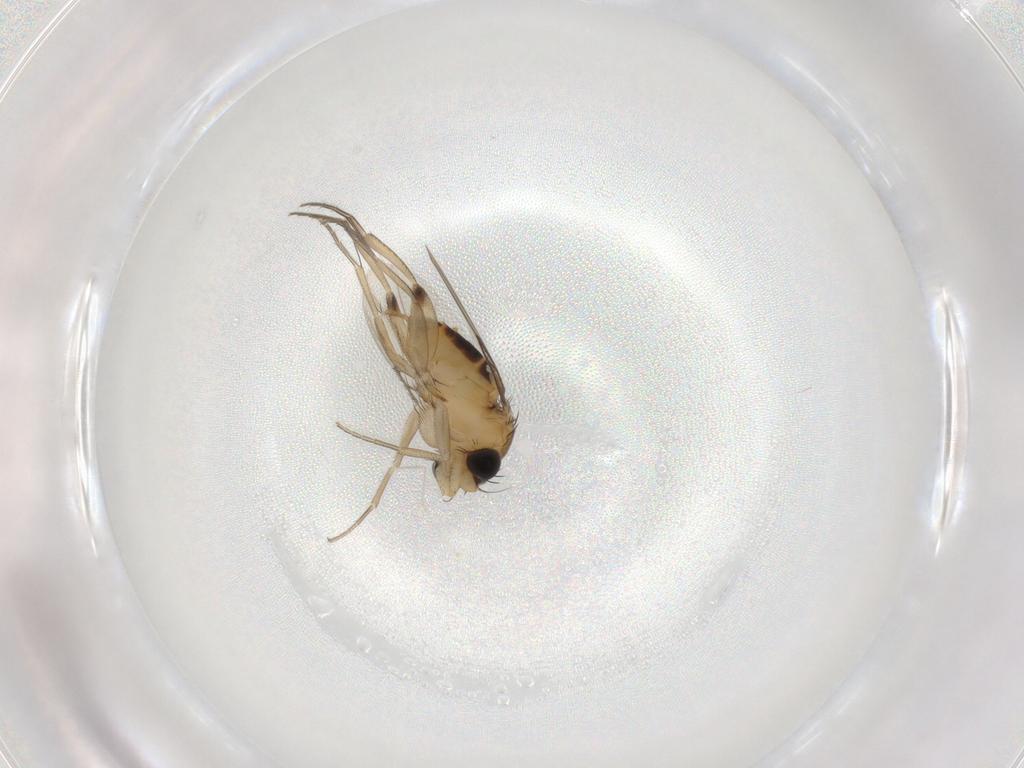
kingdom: Animalia
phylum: Arthropoda
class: Insecta
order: Diptera
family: Phoridae
